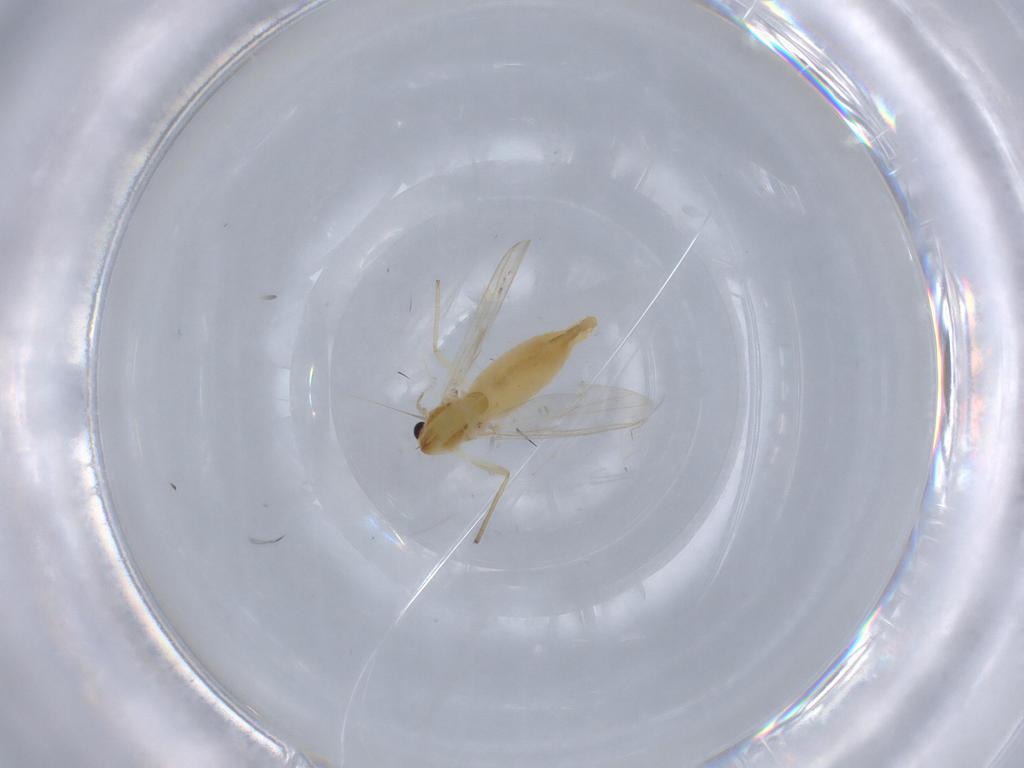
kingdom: Animalia
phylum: Arthropoda
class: Insecta
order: Diptera
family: Chironomidae
